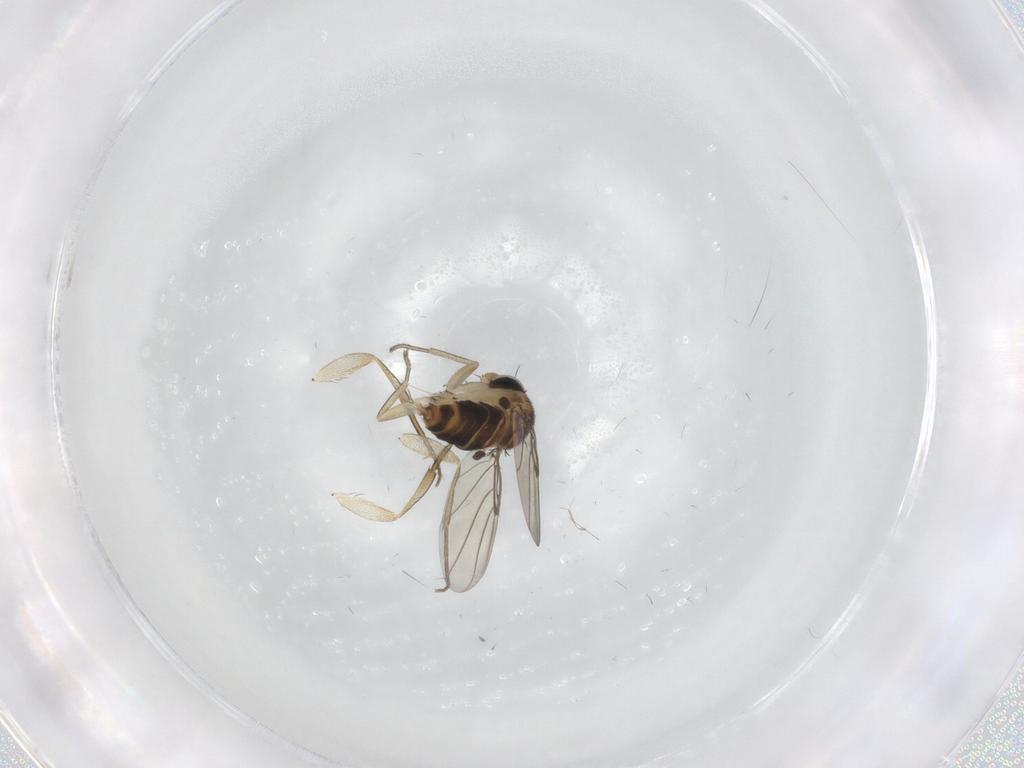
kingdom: Animalia
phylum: Arthropoda
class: Insecta
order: Diptera
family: Phoridae
